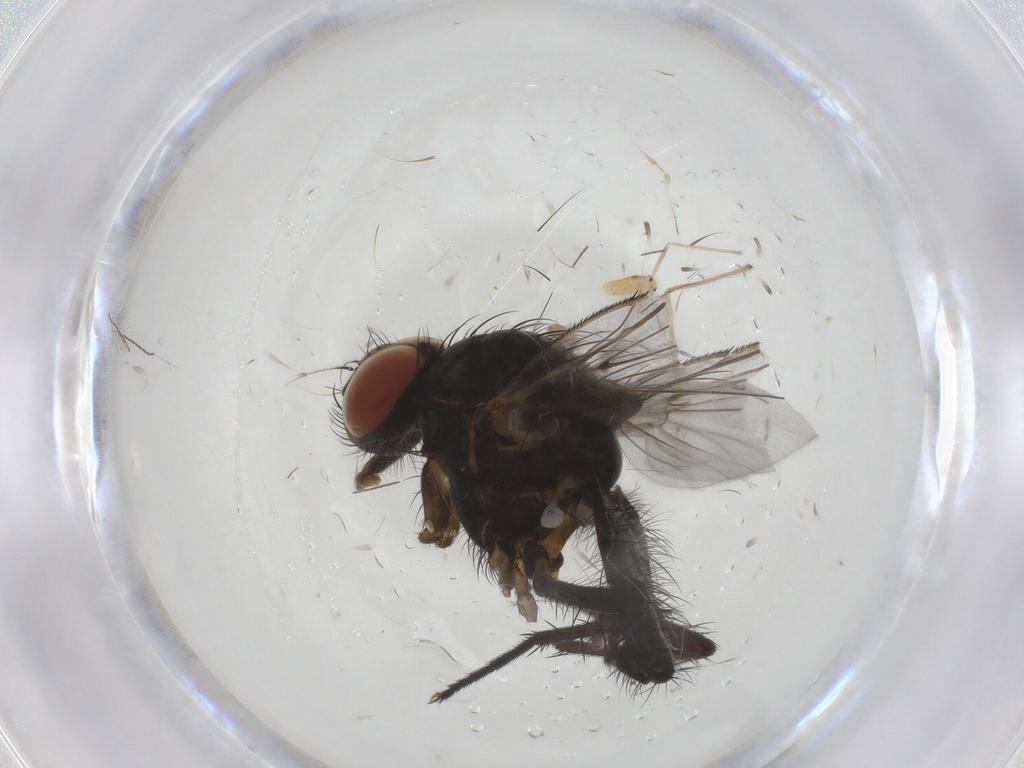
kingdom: Animalia
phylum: Arthropoda
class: Insecta
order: Diptera
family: Anthomyiidae
